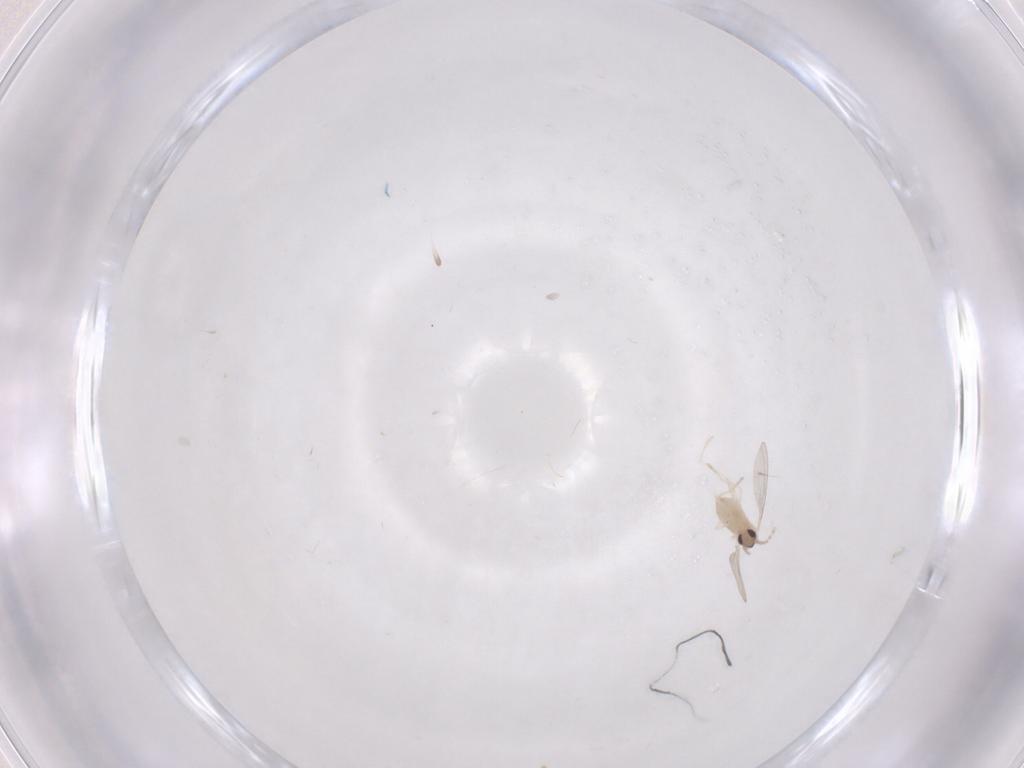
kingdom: Animalia
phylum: Arthropoda
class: Insecta
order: Diptera
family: Cecidomyiidae
